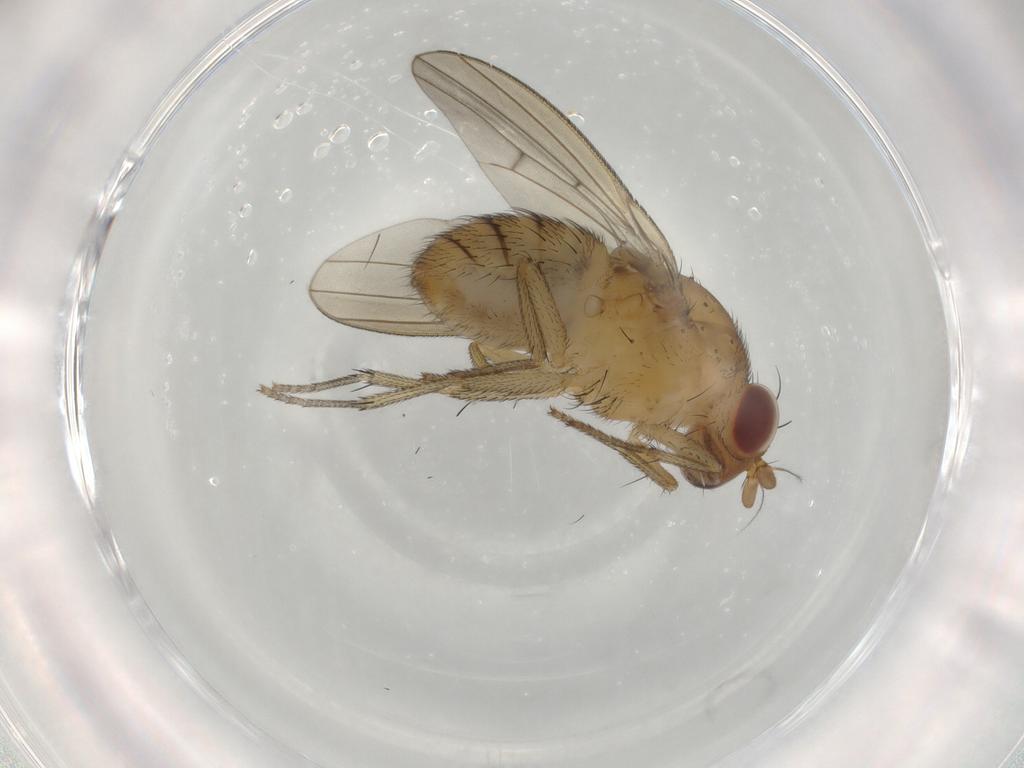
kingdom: Animalia
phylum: Arthropoda
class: Insecta
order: Diptera
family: Lauxaniidae
